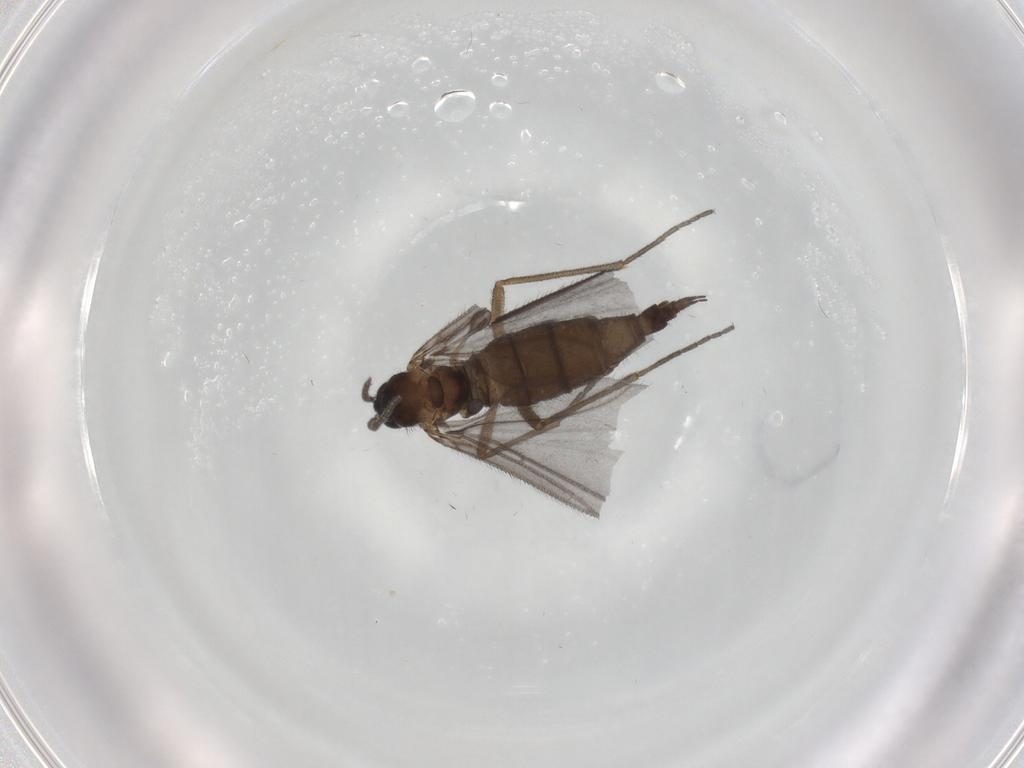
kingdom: Animalia
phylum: Arthropoda
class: Insecta
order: Diptera
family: Sciaridae
